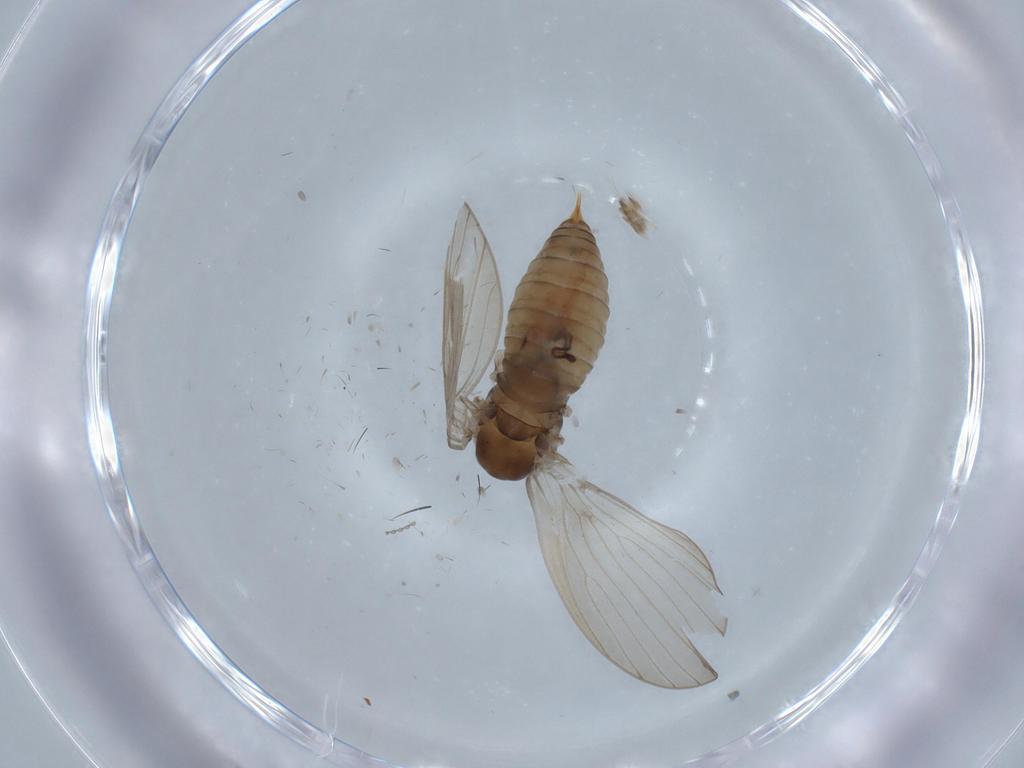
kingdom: Animalia
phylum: Arthropoda
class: Insecta
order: Diptera
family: Psychodidae
